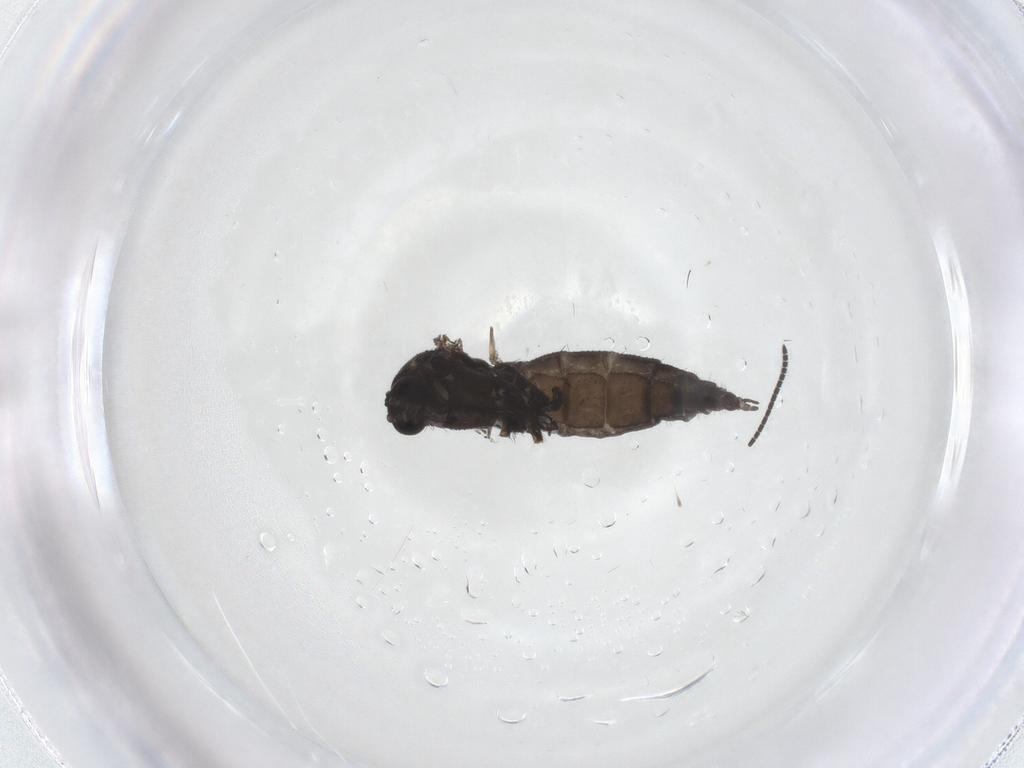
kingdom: Animalia
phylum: Arthropoda
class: Insecta
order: Diptera
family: Sciaridae
